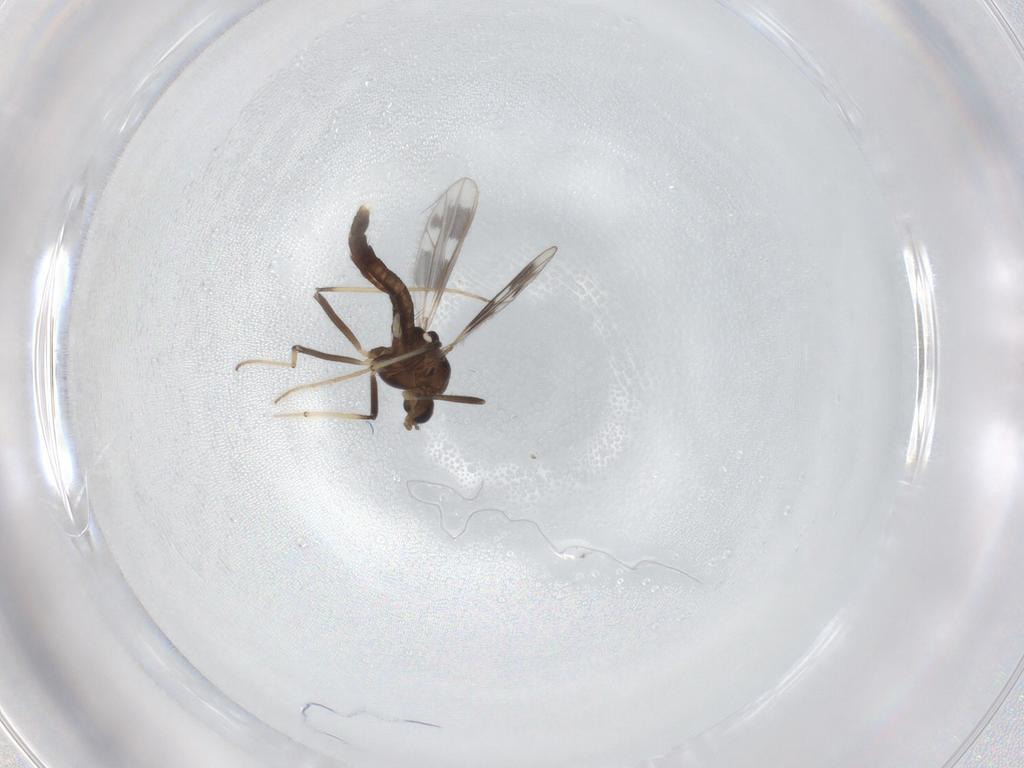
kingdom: Animalia
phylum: Arthropoda
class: Insecta
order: Diptera
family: Chironomidae
